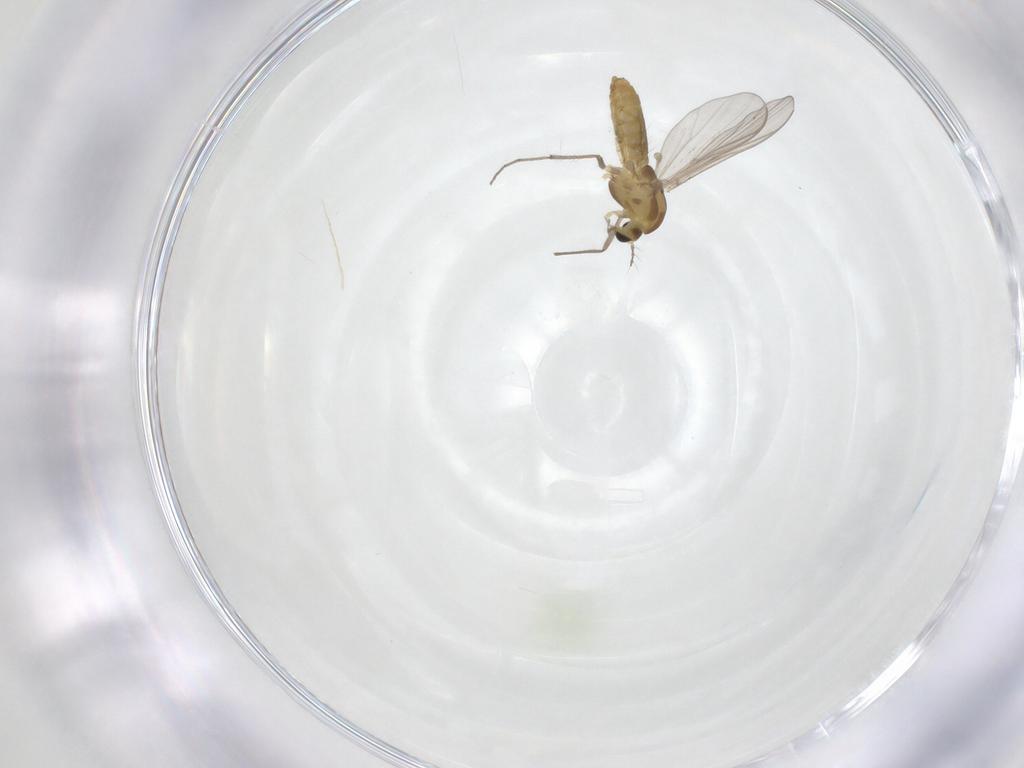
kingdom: Animalia
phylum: Arthropoda
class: Insecta
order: Diptera
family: Chironomidae
